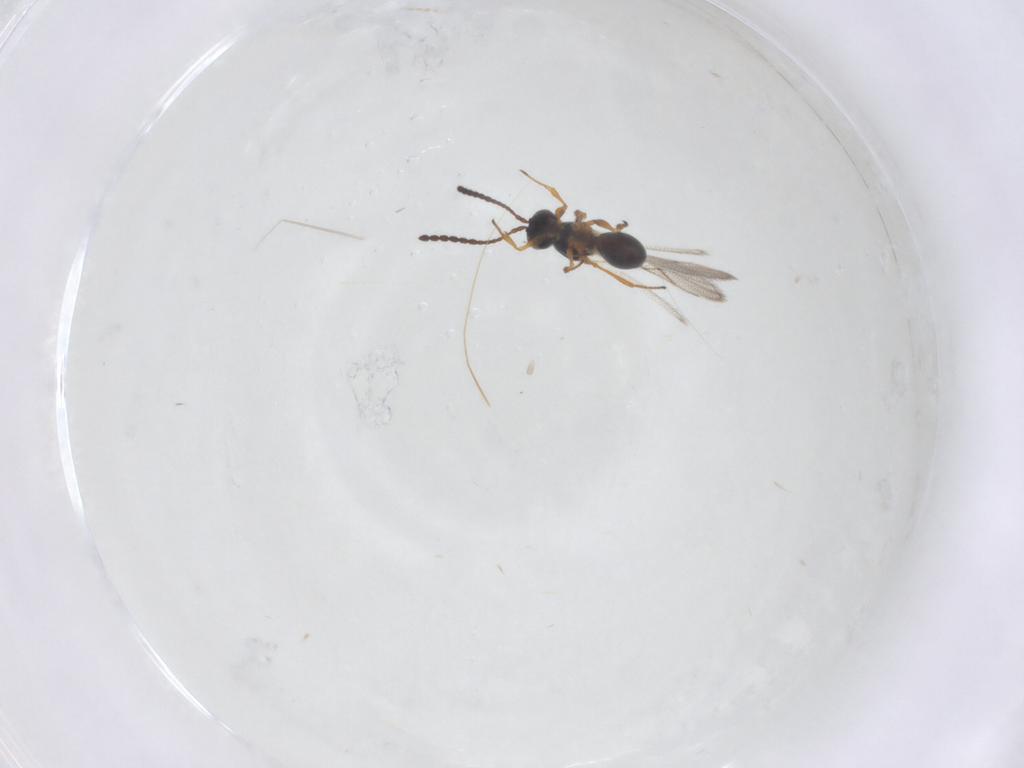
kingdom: Animalia
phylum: Arthropoda
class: Insecta
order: Hymenoptera
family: Figitidae
